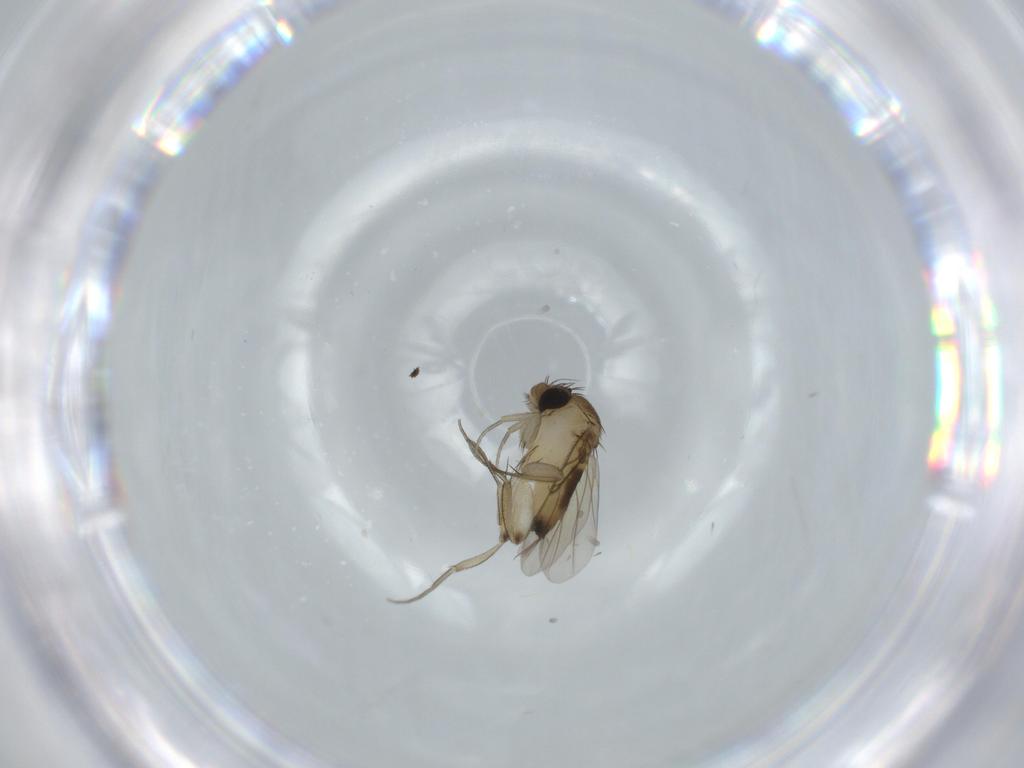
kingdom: Animalia
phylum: Arthropoda
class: Insecta
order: Diptera
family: Phoridae
